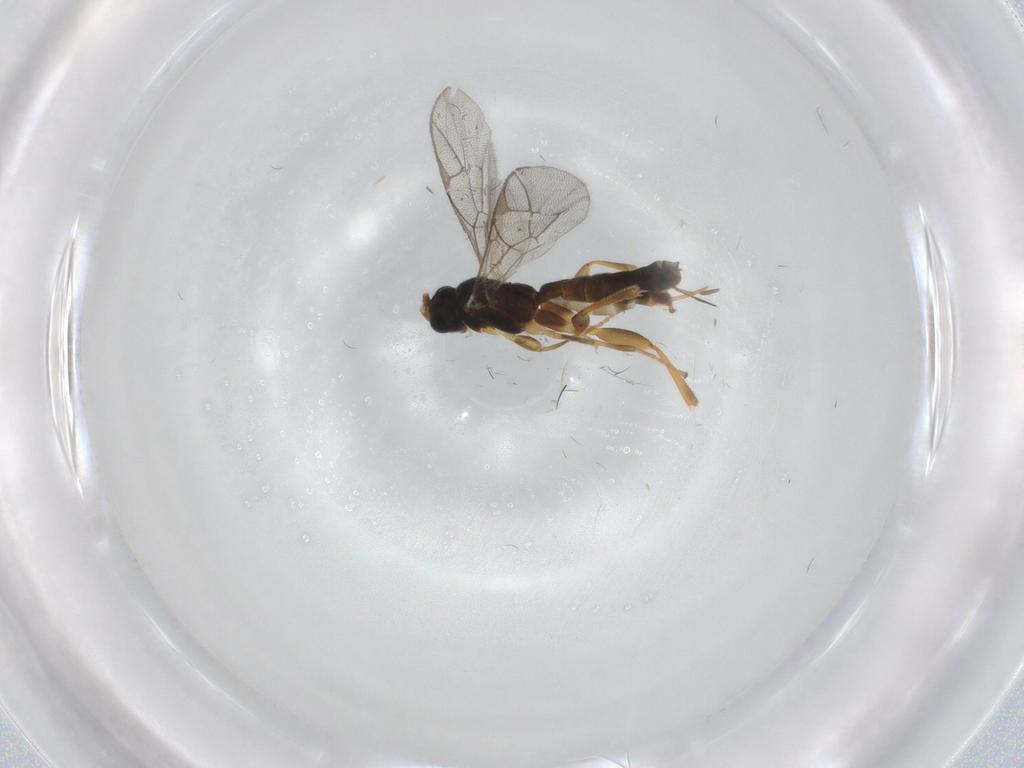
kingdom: Animalia
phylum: Arthropoda
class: Insecta
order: Hymenoptera
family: Ichneumonidae
